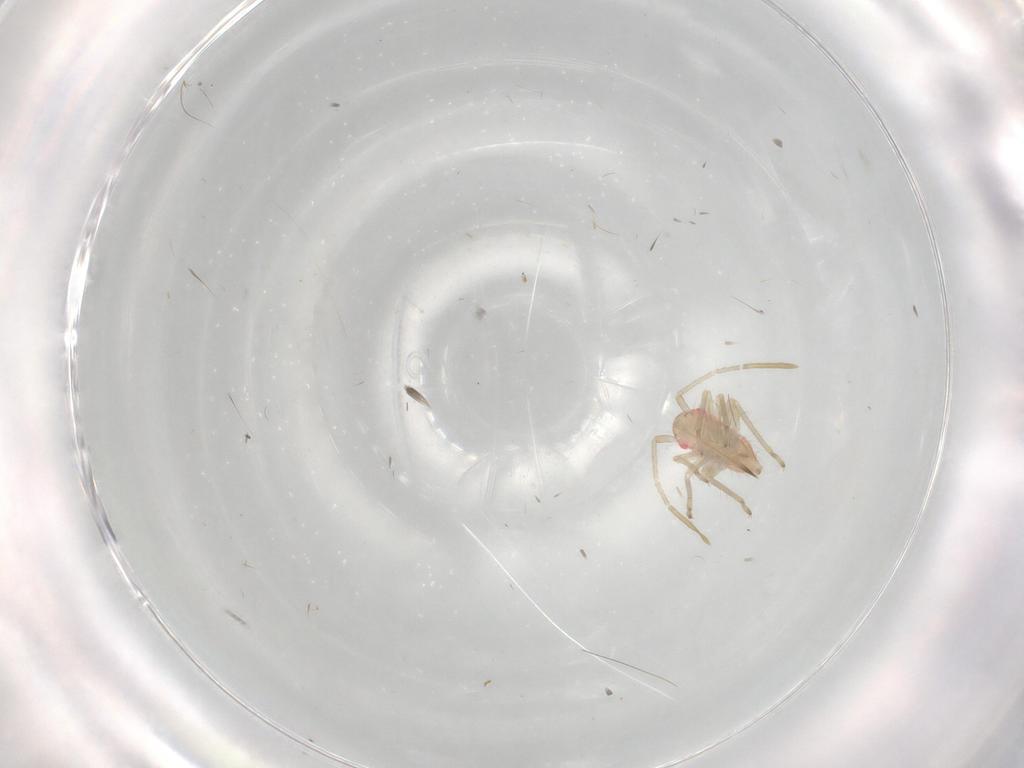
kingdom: Animalia
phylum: Arthropoda
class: Insecta
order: Hemiptera
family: Miridae
